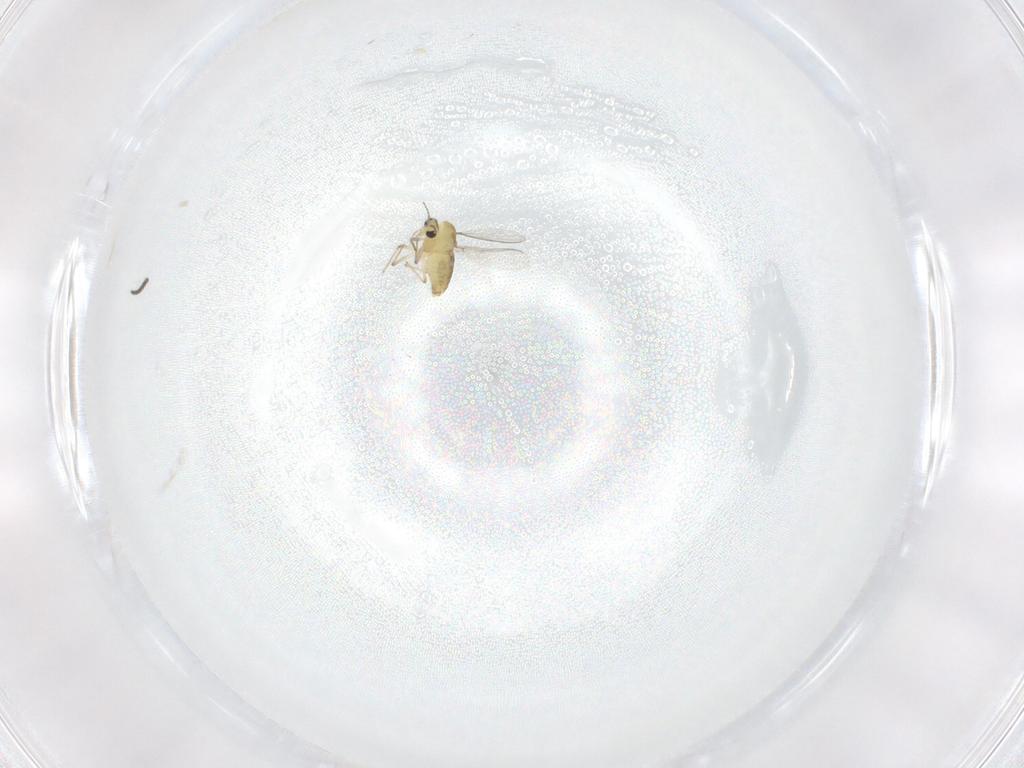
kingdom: Animalia
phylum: Arthropoda
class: Insecta
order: Diptera
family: Chironomidae
